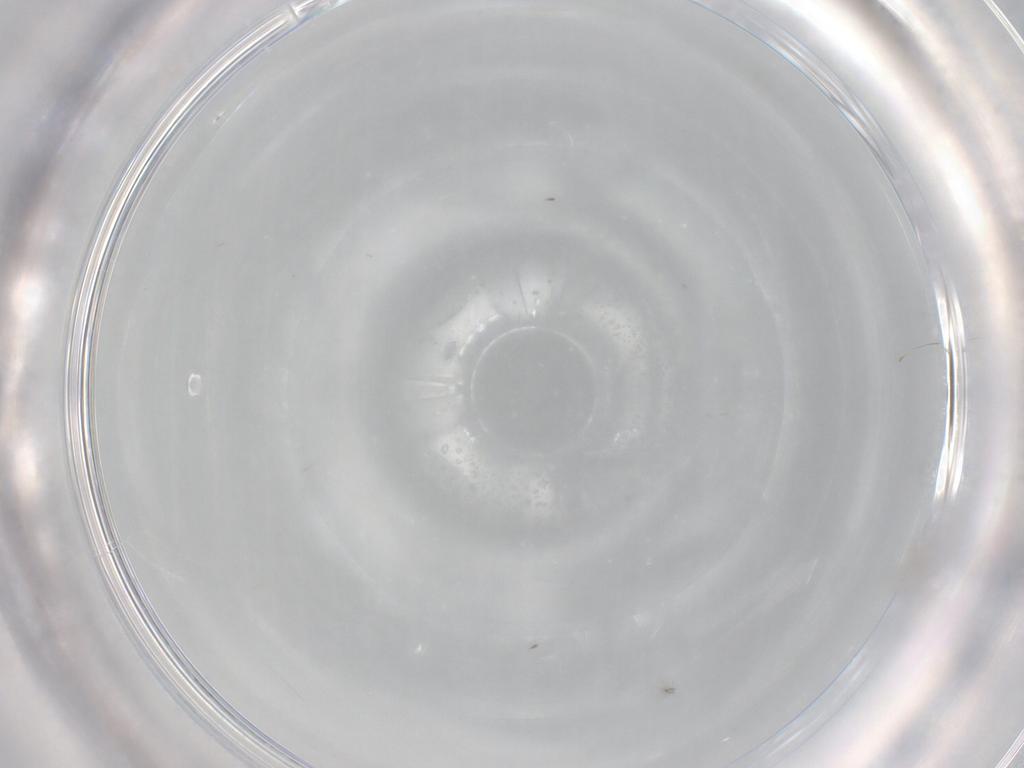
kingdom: Animalia
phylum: Arthropoda
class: Insecta
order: Hymenoptera
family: Mymaridae
